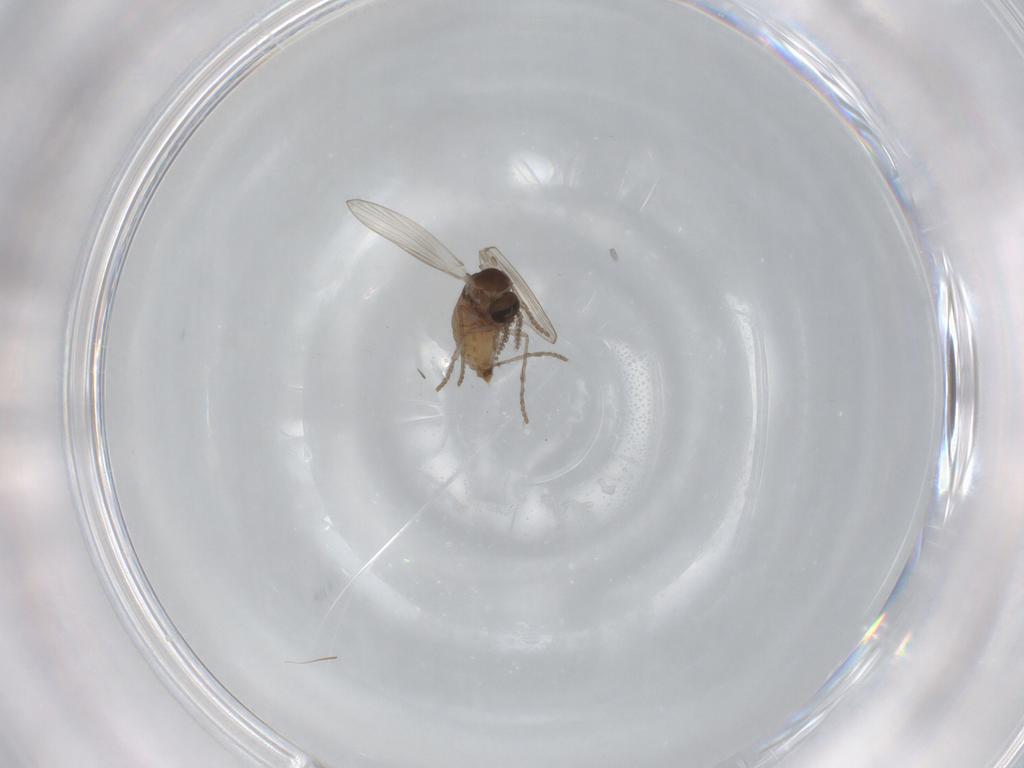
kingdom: Animalia
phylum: Arthropoda
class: Insecta
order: Diptera
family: Psychodidae
